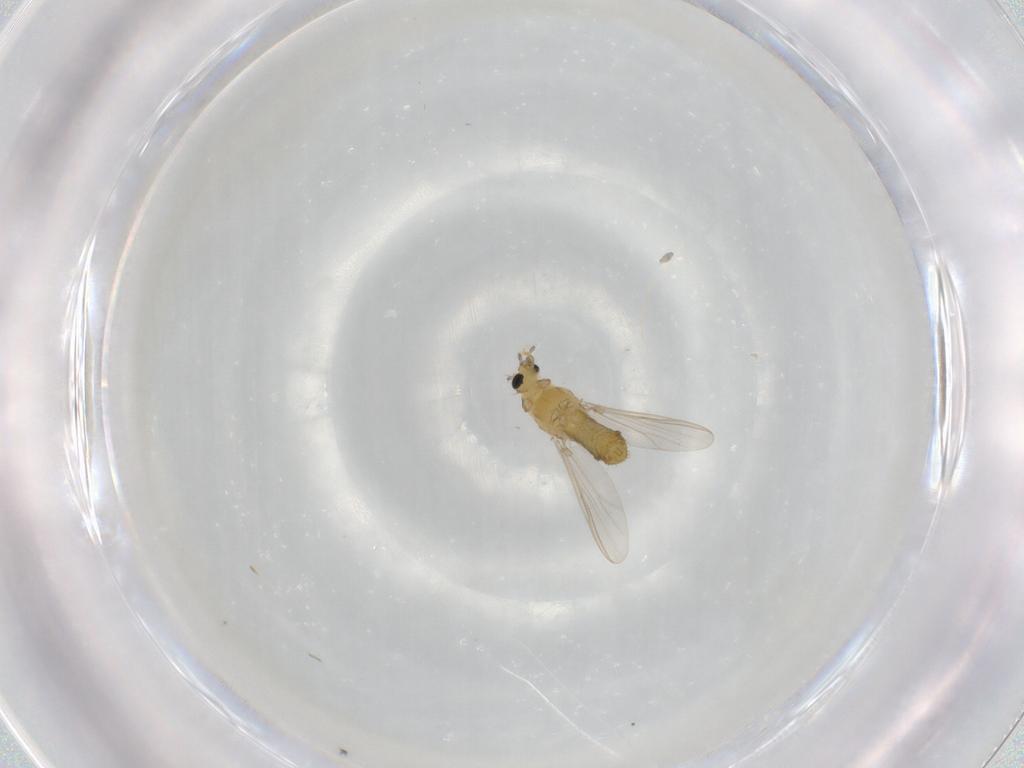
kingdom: Animalia
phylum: Arthropoda
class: Insecta
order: Diptera
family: Chironomidae
